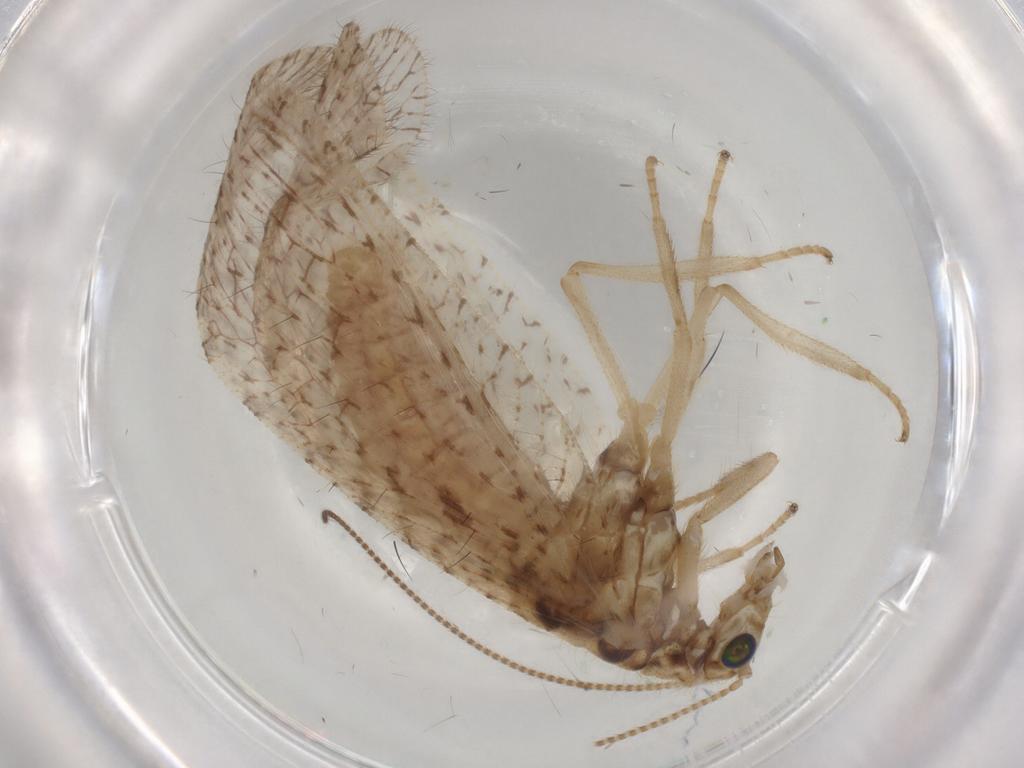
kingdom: Animalia
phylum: Arthropoda
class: Insecta
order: Neuroptera
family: Hemerobiidae
